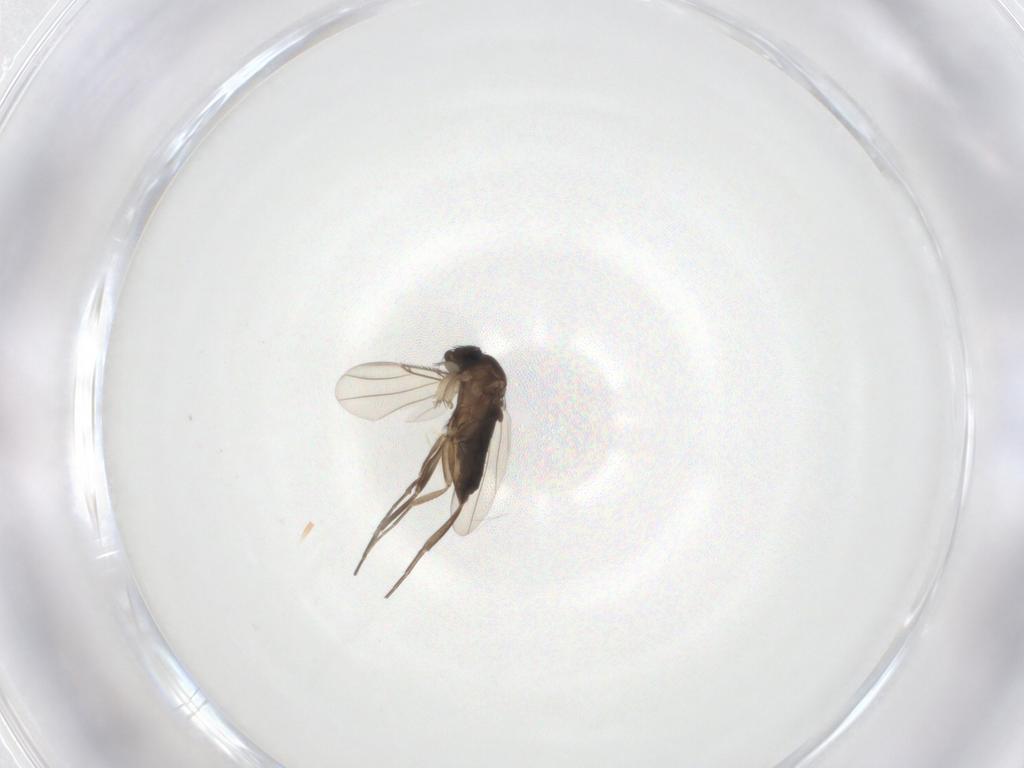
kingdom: Animalia
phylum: Arthropoda
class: Insecta
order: Diptera
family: Phoridae
